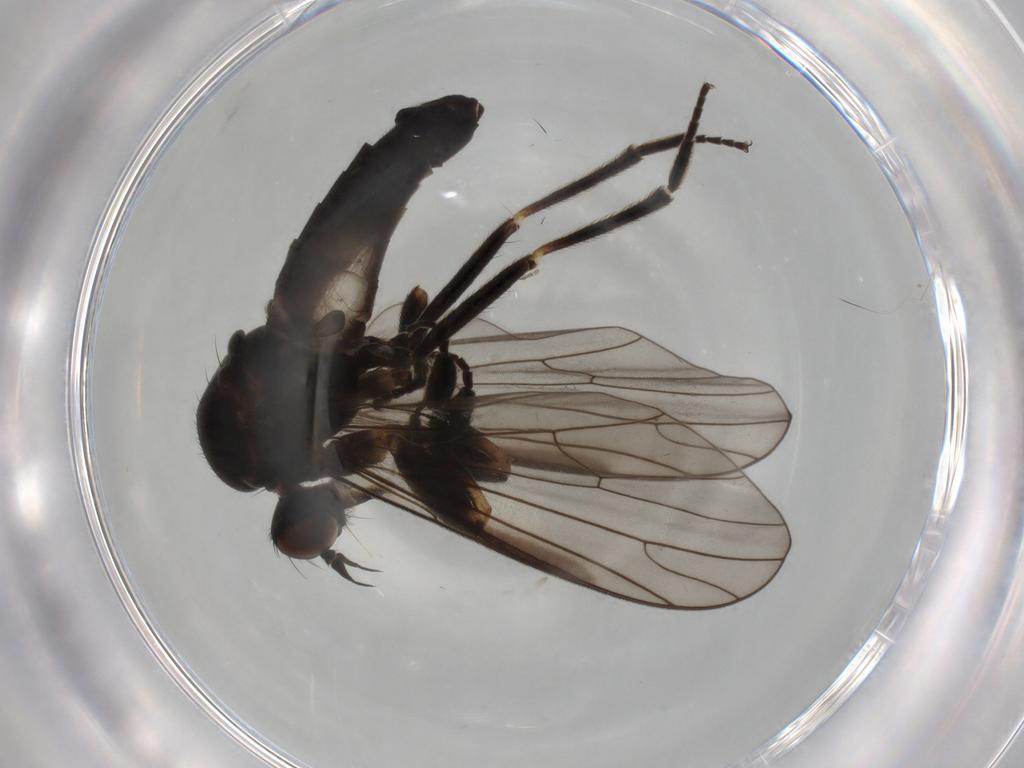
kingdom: Animalia
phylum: Arthropoda
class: Insecta
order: Diptera
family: Empididae
